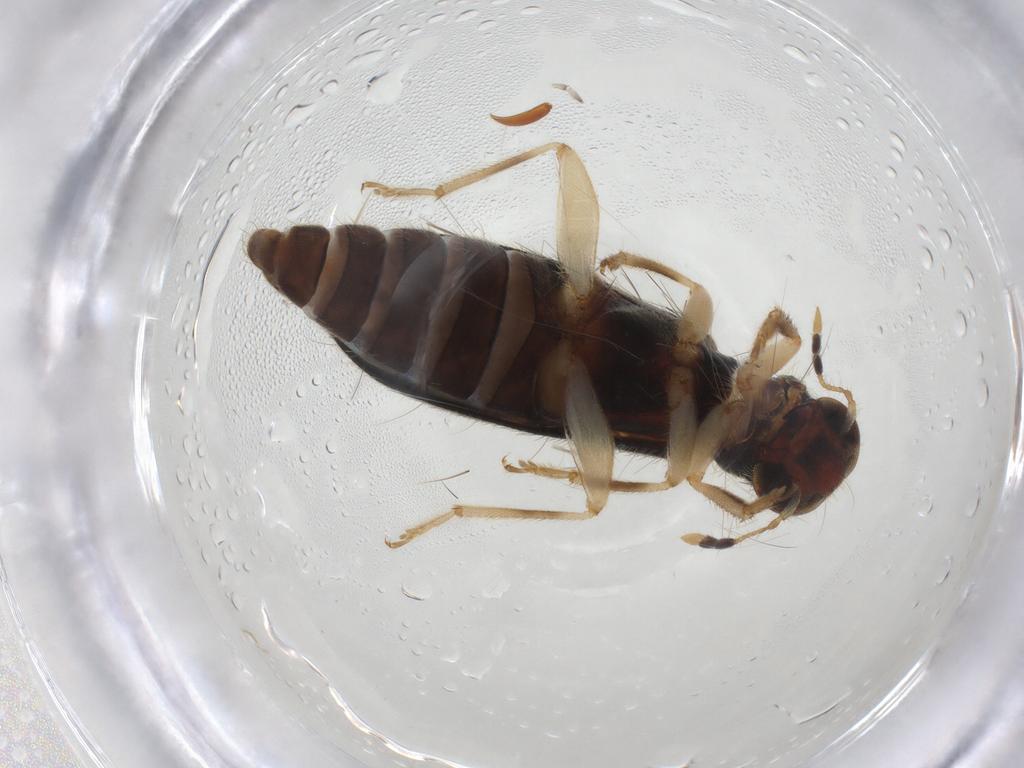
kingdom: Animalia
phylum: Arthropoda
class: Insecta
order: Coleoptera
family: Cleridae
